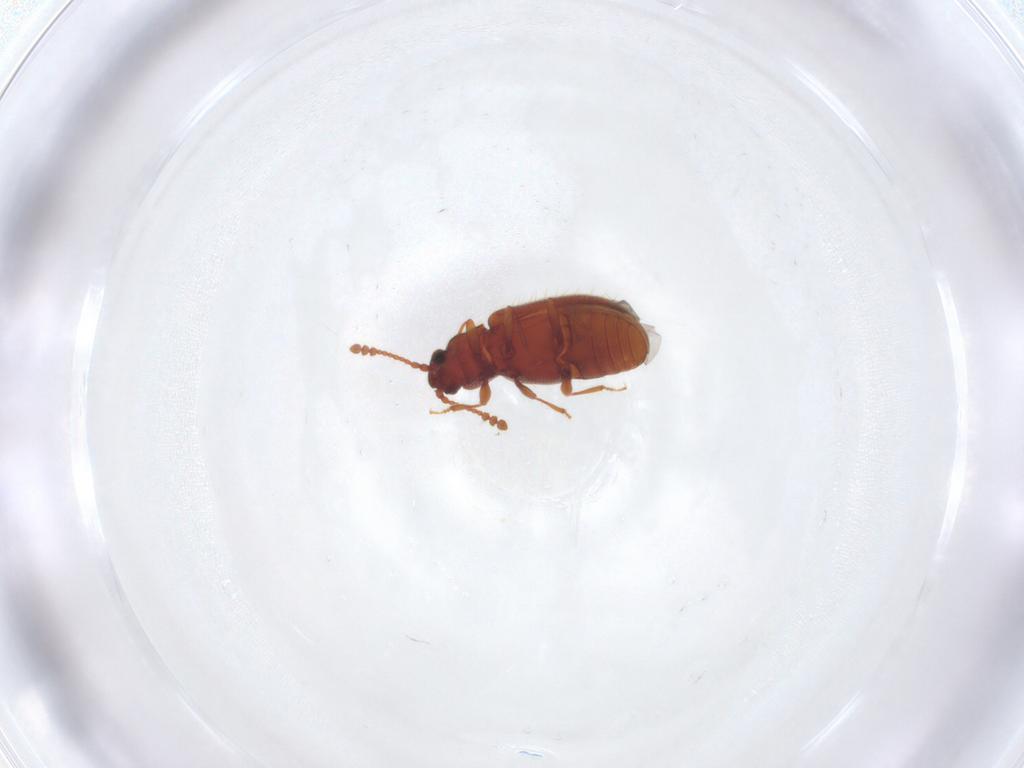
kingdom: Animalia
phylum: Arthropoda
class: Insecta
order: Coleoptera
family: Cryptophagidae
